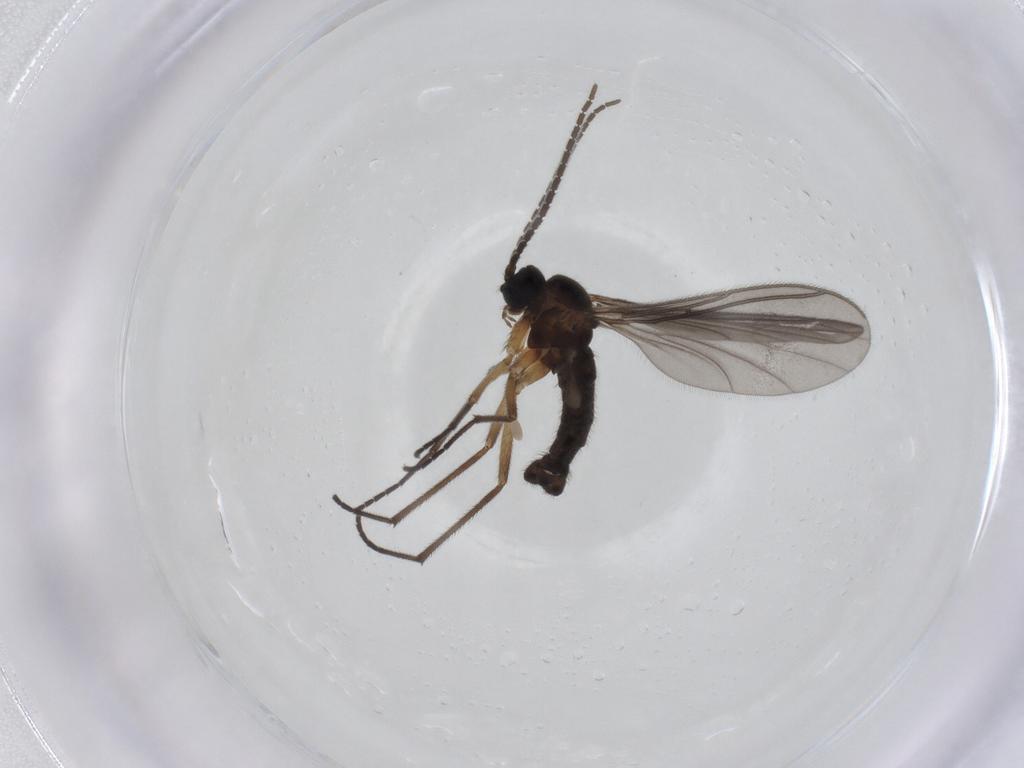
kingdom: Animalia
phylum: Arthropoda
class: Insecta
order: Diptera
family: Sciaridae
